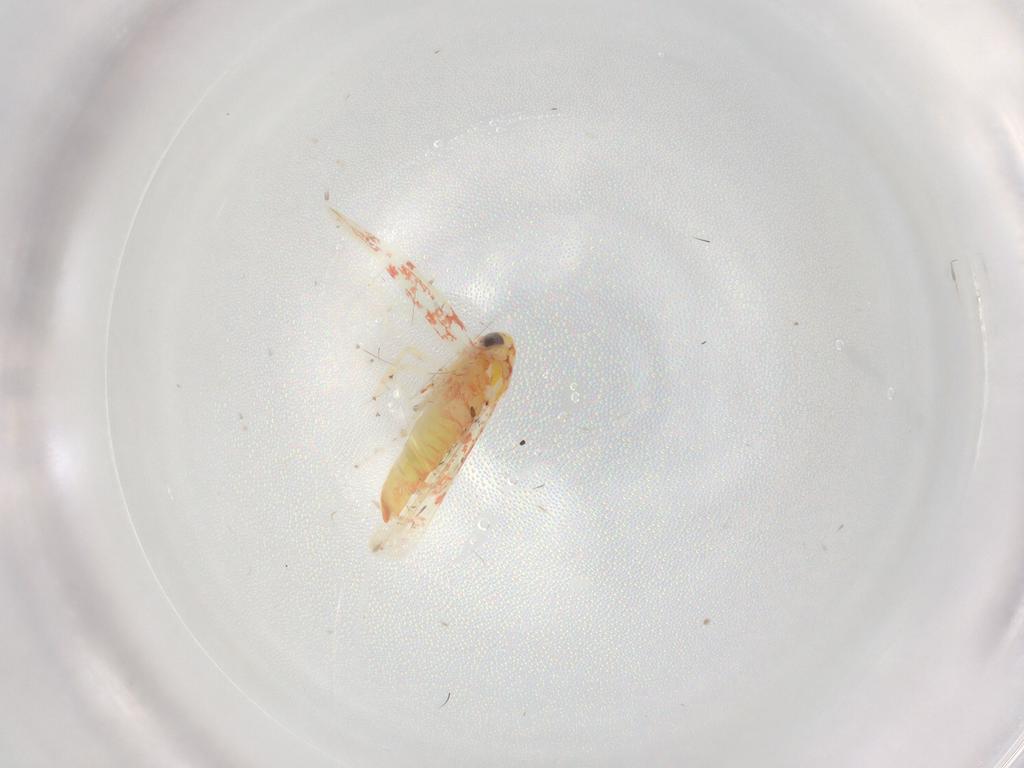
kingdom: Animalia
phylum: Arthropoda
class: Insecta
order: Hemiptera
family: Cicadellidae
